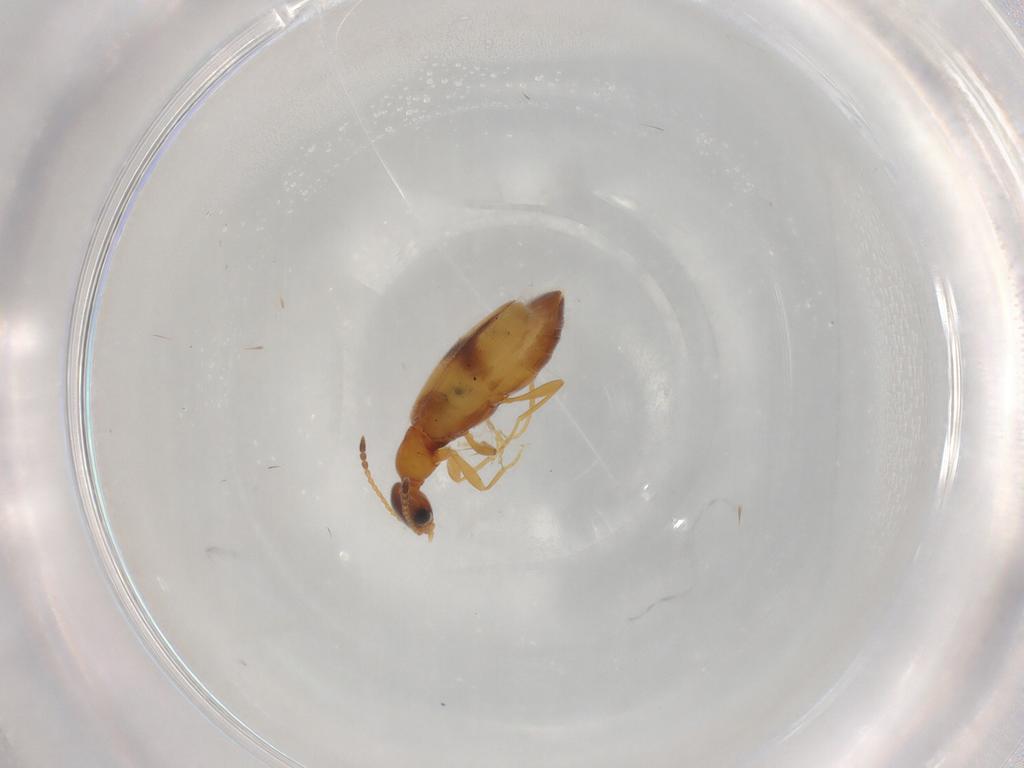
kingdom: Animalia
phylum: Arthropoda
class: Insecta
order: Coleoptera
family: Anthicidae
